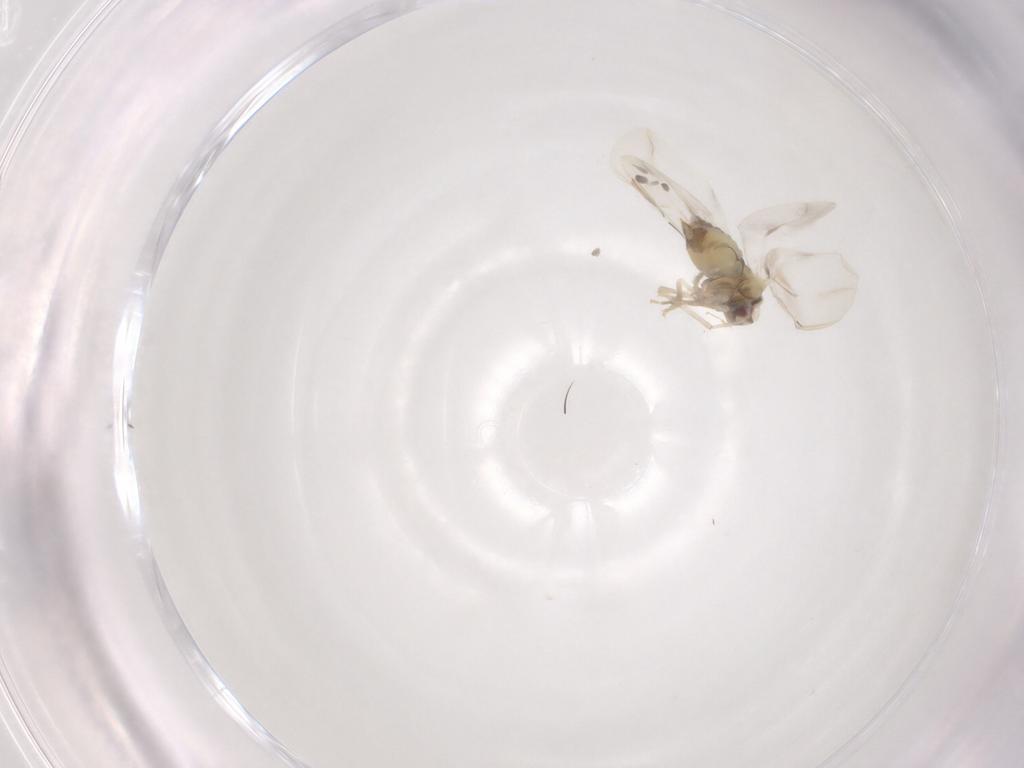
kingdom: Animalia
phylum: Arthropoda
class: Insecta
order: Hemiptera
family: Aleyrodidae
